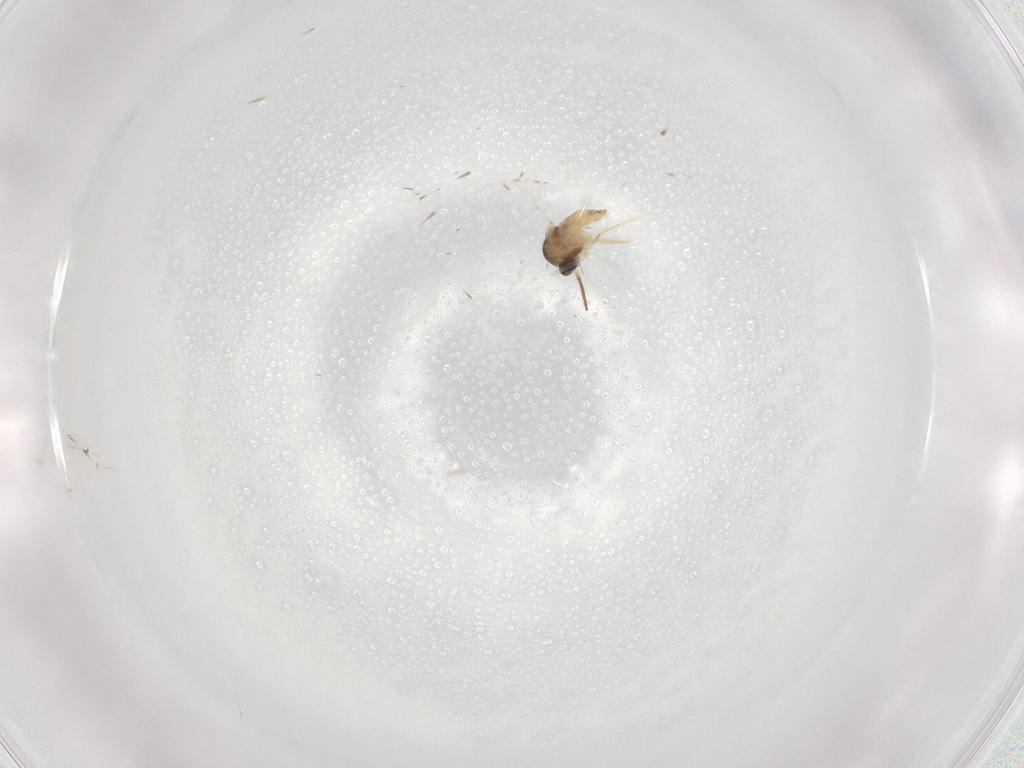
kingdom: Animalia
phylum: Arthropoda
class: Insecta
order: Diptera
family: Cecidomyiidae
